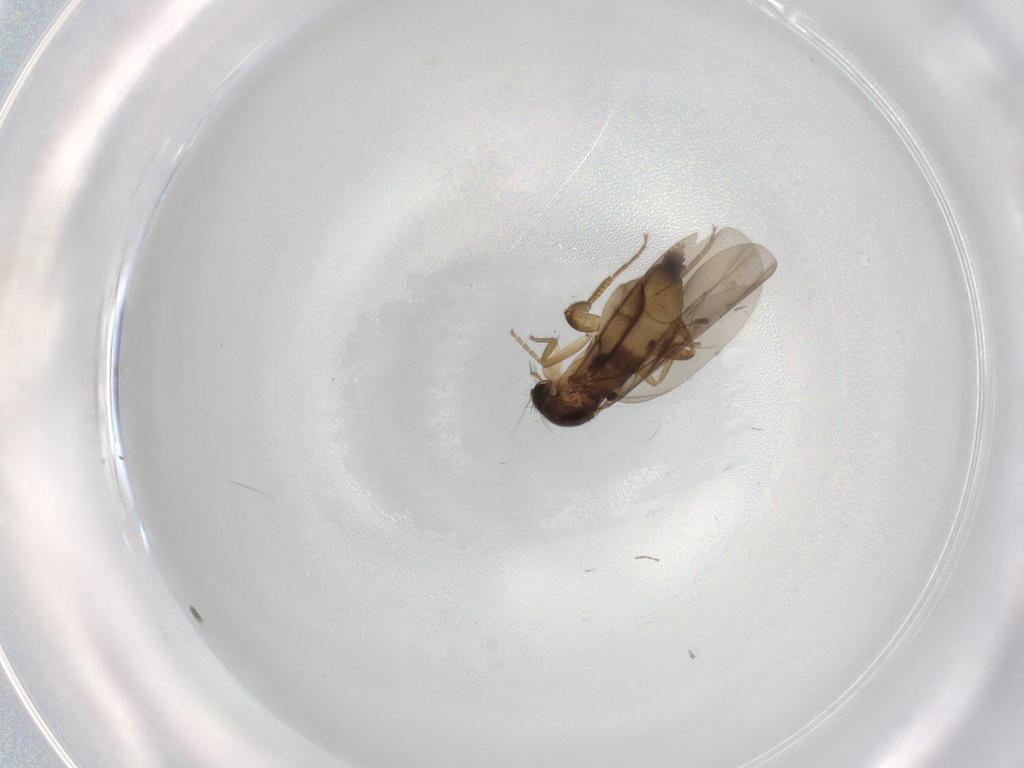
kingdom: Animalia
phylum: Arthropoda
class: Insecta
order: Diptera
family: Phoridae
